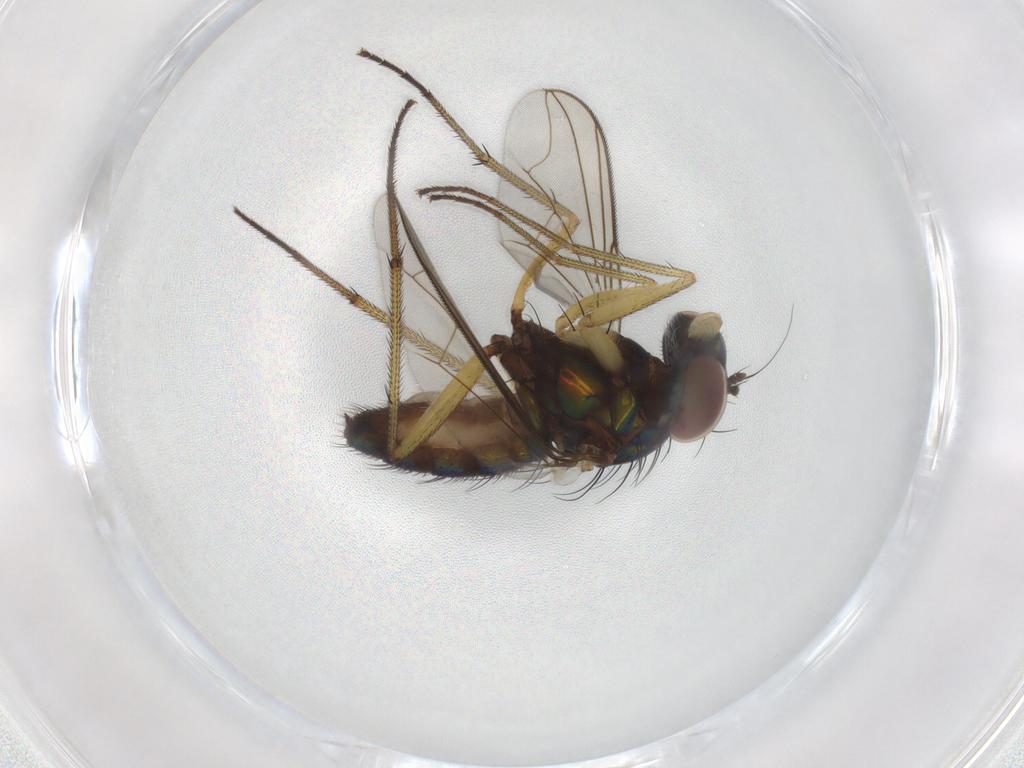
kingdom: Animalia
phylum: Arthropoda
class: Insecta
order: Diptera
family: Dolichopodidae
